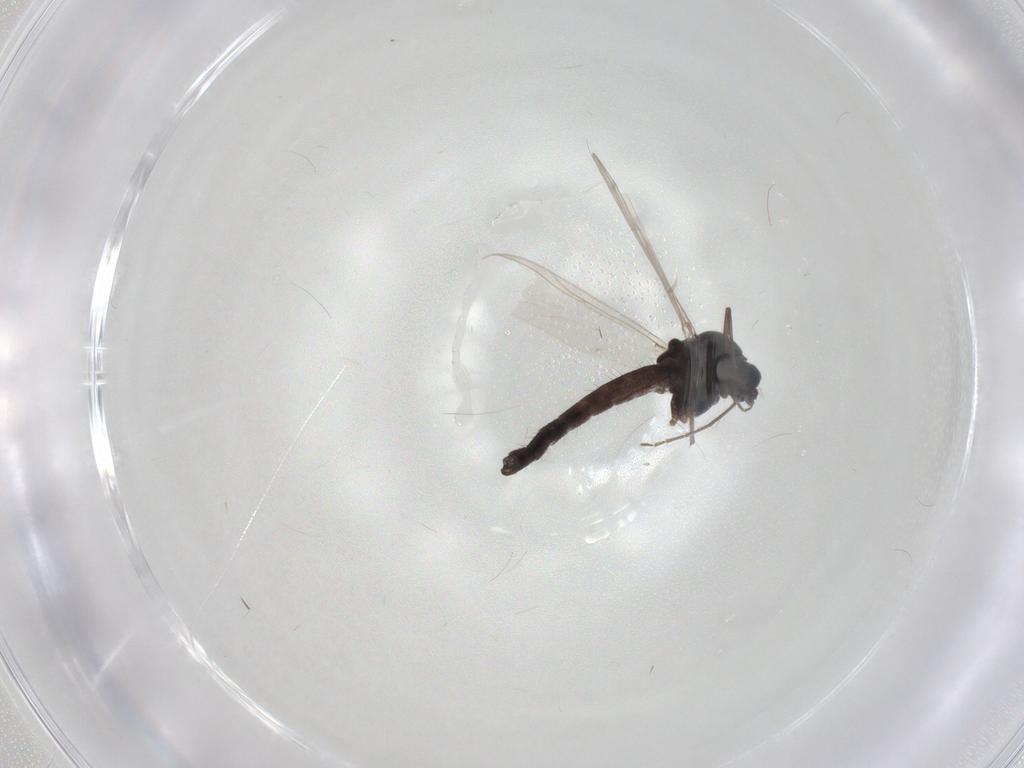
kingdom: Animalia
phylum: Arthropoda
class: Insecta
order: Diptera
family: Chironomidae
